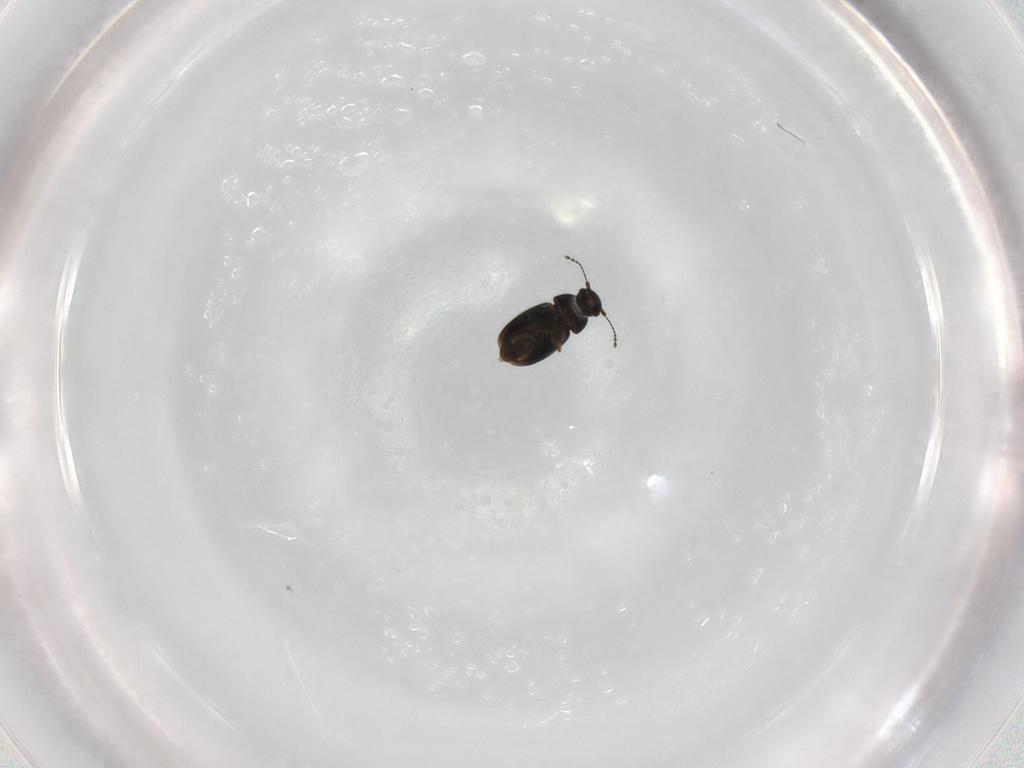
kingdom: Animalia
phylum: Arthropoda
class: Insecta
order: Coleoptera
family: Ptiliidae
